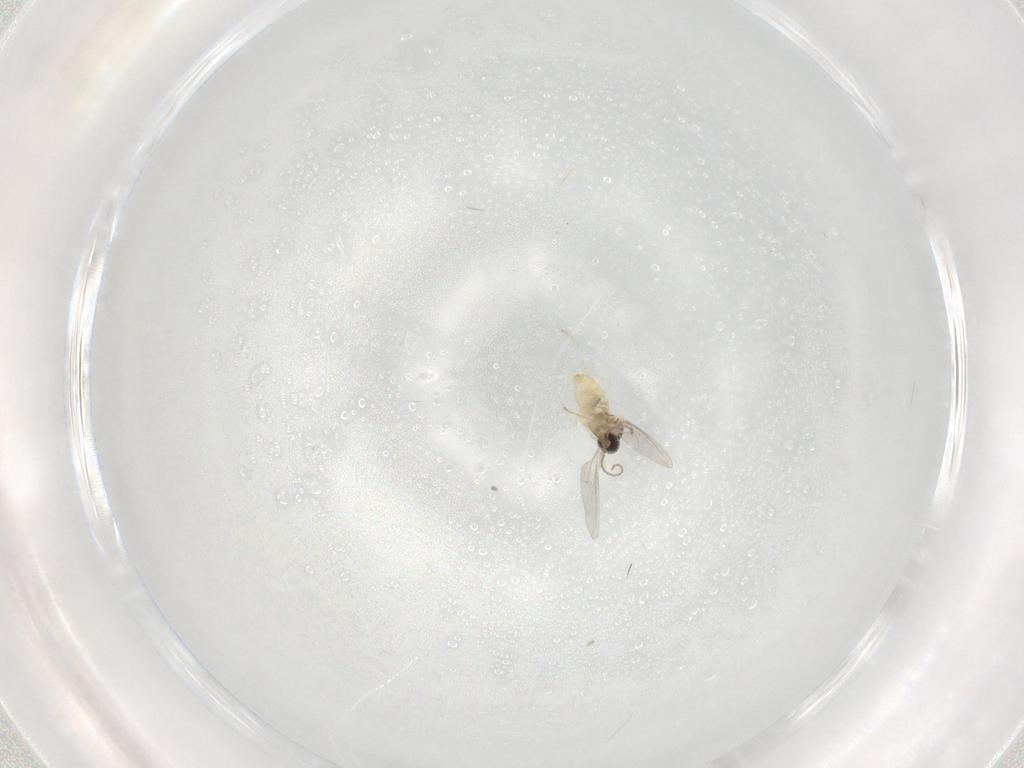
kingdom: Animalia
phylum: Arthropoda
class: Insecta
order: Diptera
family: Cecidomyiidae
